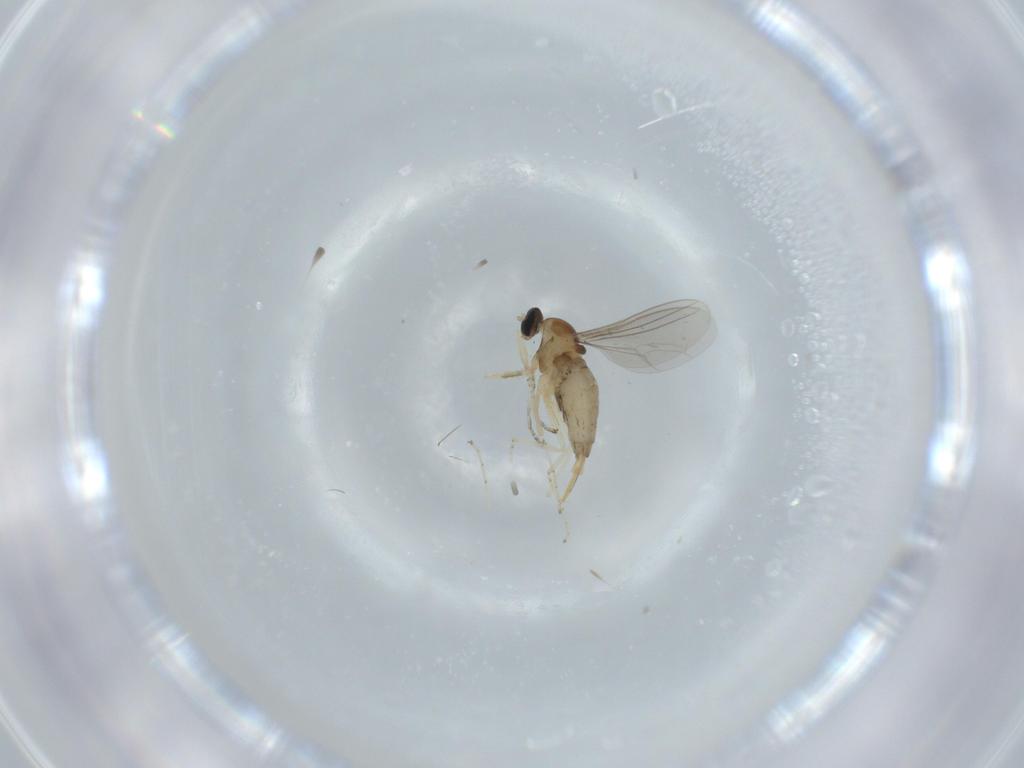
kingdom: Animalia
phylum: Arthropoda
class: Insecta
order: Diptera
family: Cecidomyiidae
